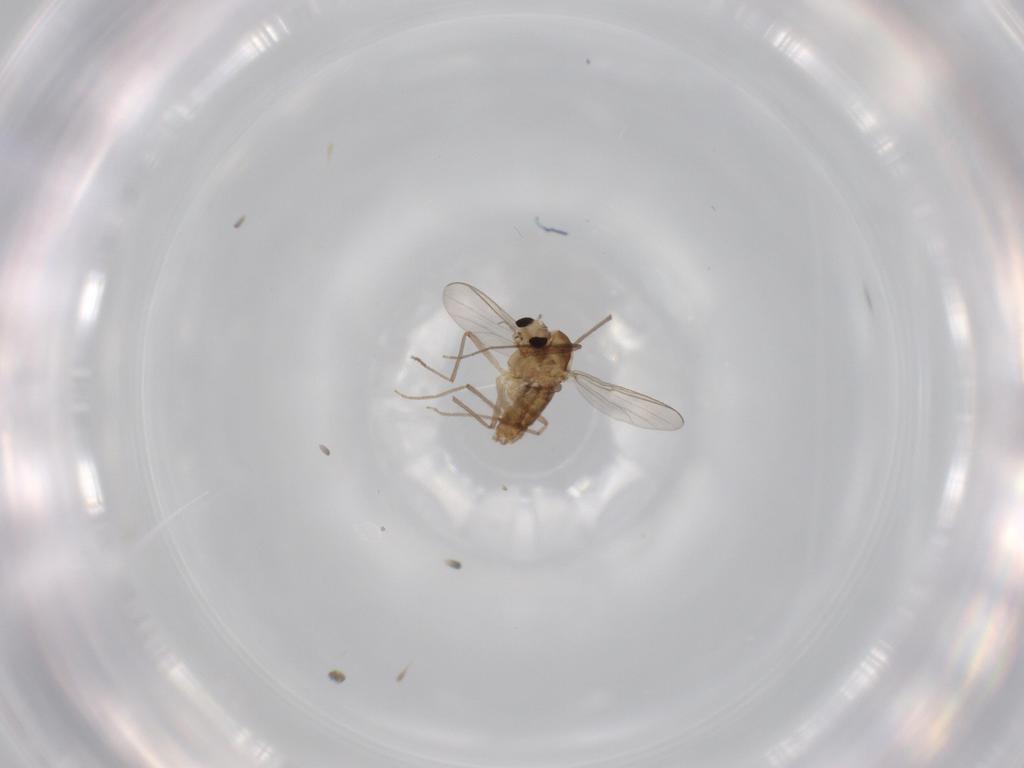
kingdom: Animalia
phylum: Arthropoda
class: Insecta
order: Diptera
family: Chironomidae
